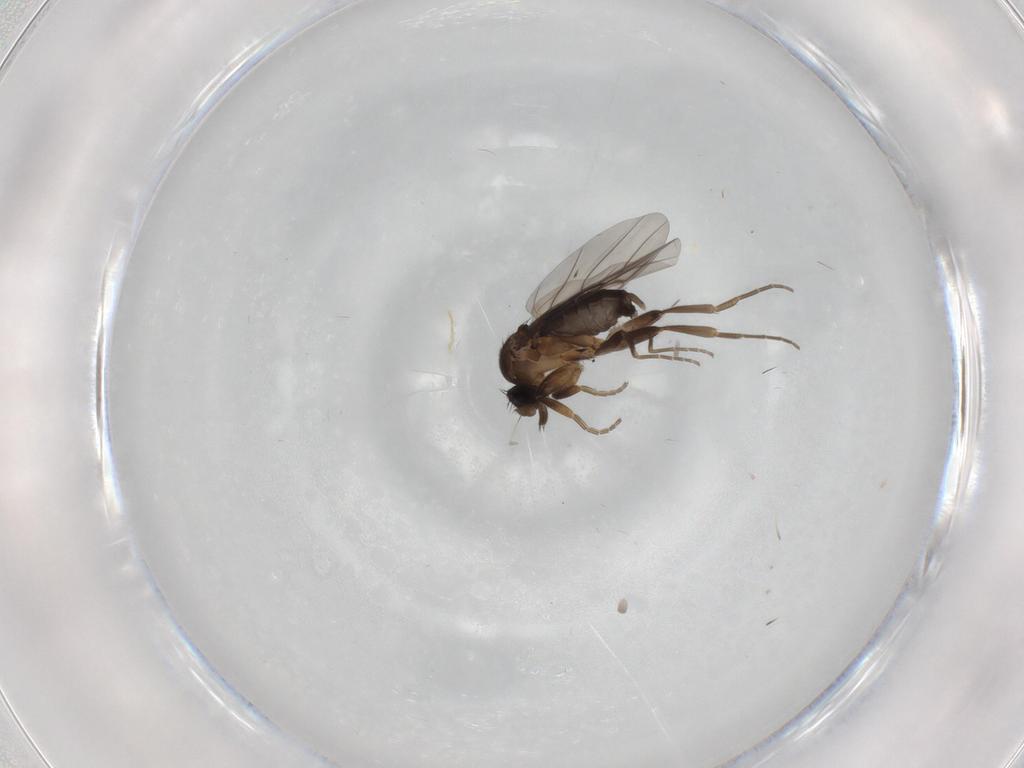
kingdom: Animalia
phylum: Arthropoda
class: Insecta
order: Diptera
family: Phoridae
